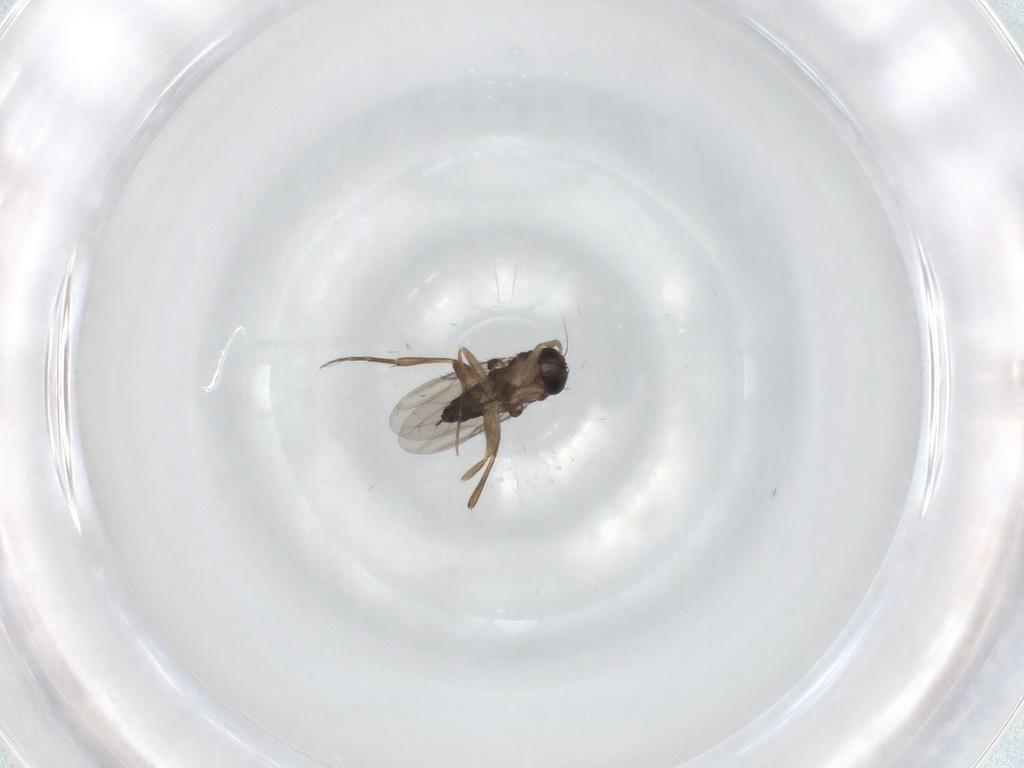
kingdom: Animalia
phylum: Arthropoda
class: Insecta
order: Diptera
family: Phoridae
